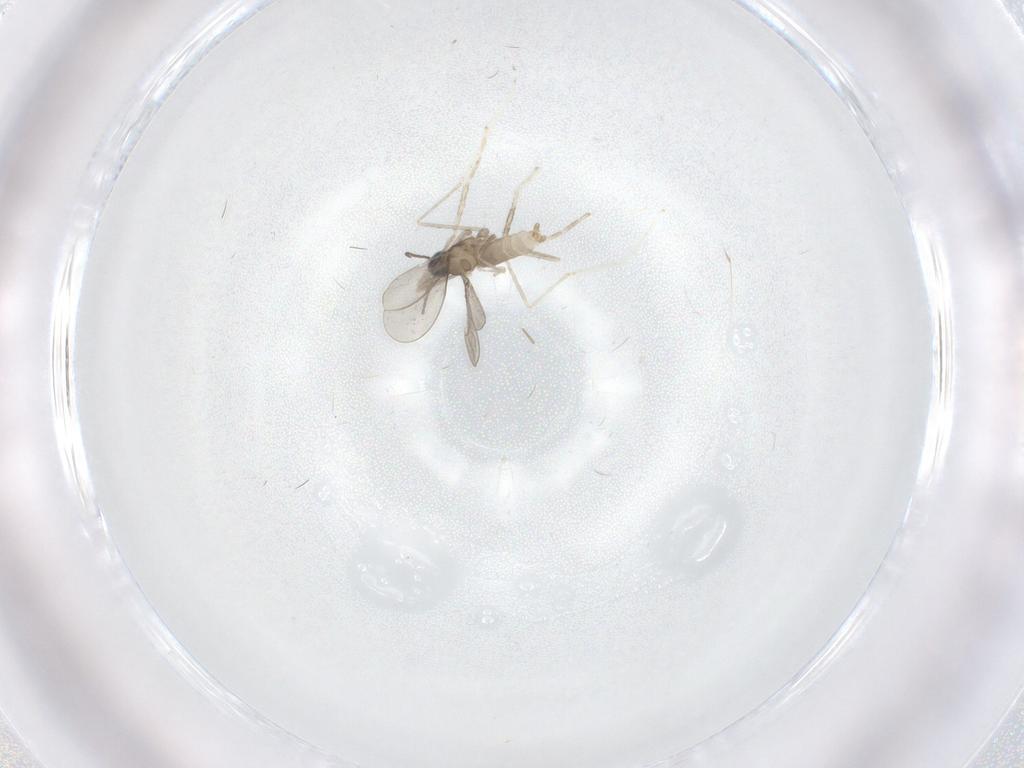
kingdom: Animalia
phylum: Arthropoda
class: Insecta
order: Diptera
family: Cecidomyiidae
